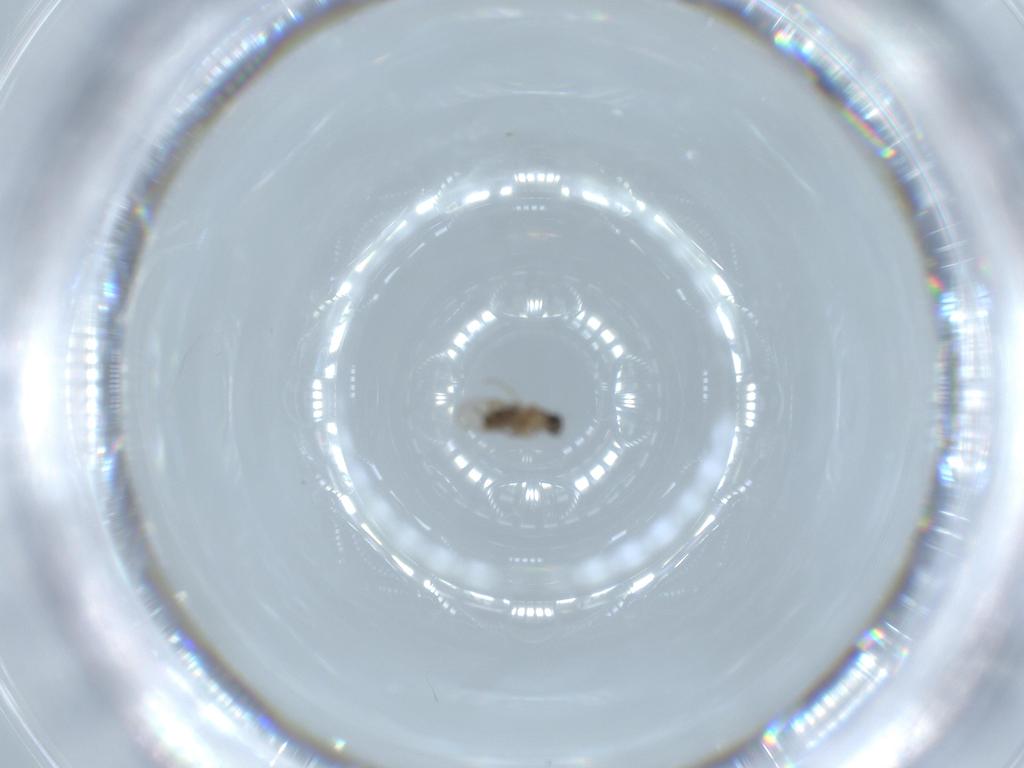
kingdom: Animalia
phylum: Arthropoda
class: Insecta
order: Diptera
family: Phoridae
